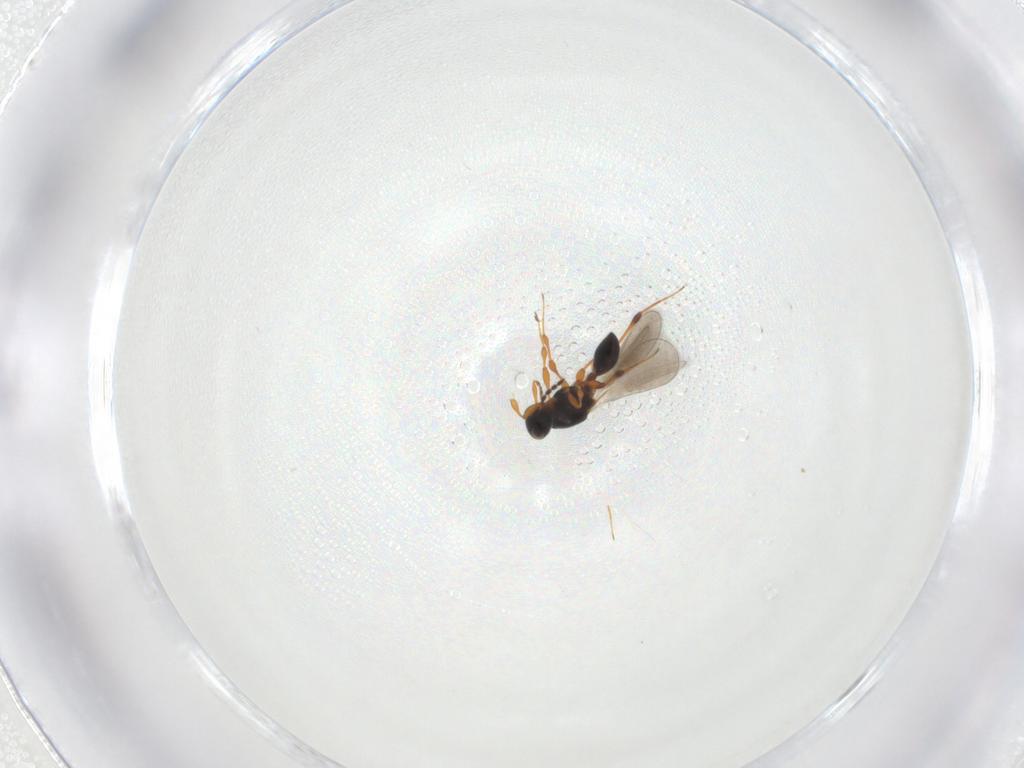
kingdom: Animalia
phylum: Arthropoda
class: Insecta
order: Hymenoptera
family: Platygastridae
